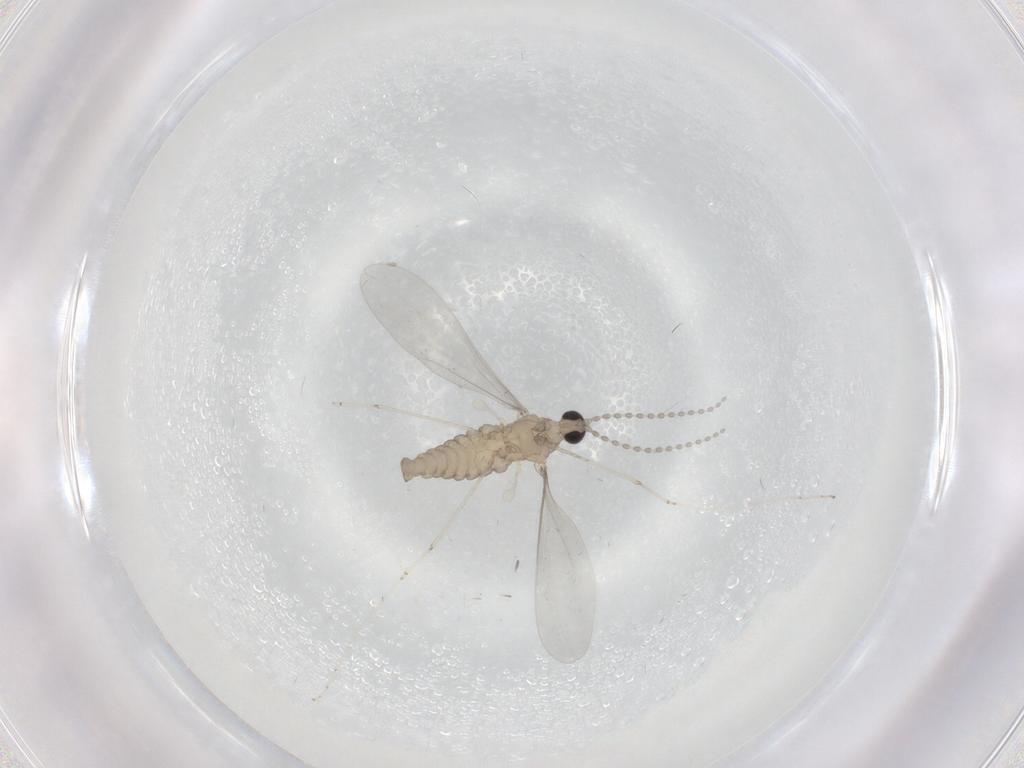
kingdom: Animalia
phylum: Arthropoda
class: Insecta
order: Diptera
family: Cecidomyiidae
